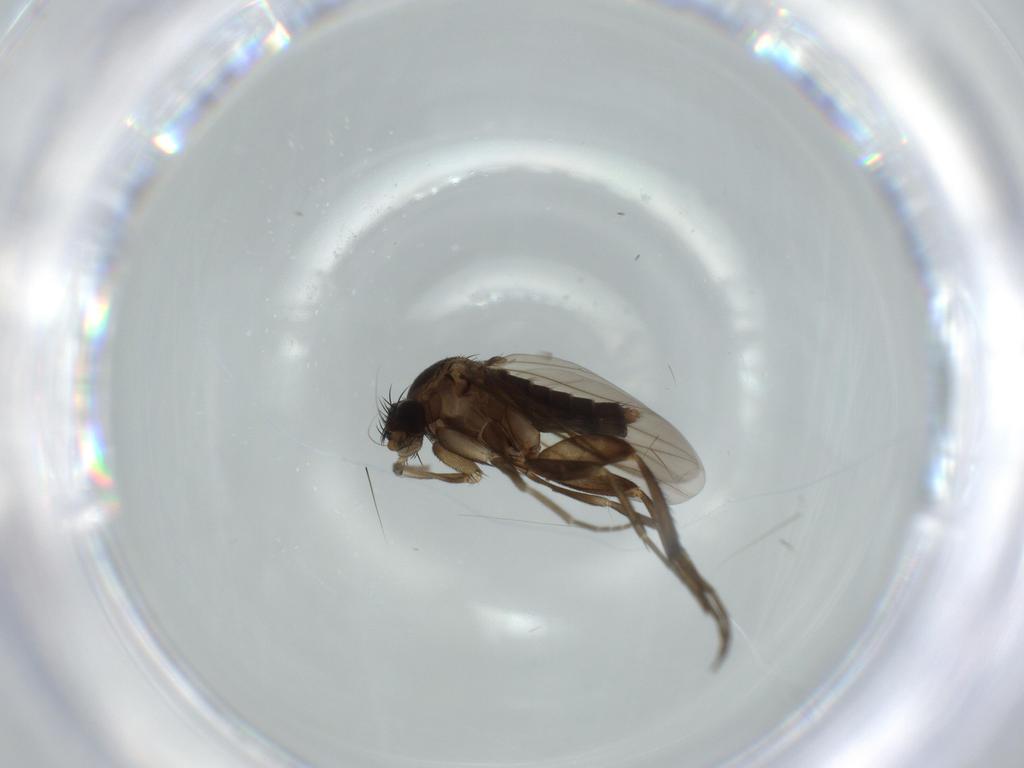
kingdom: Animalia
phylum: Arthropoda
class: Insecta
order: Diptera
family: Phoridae
